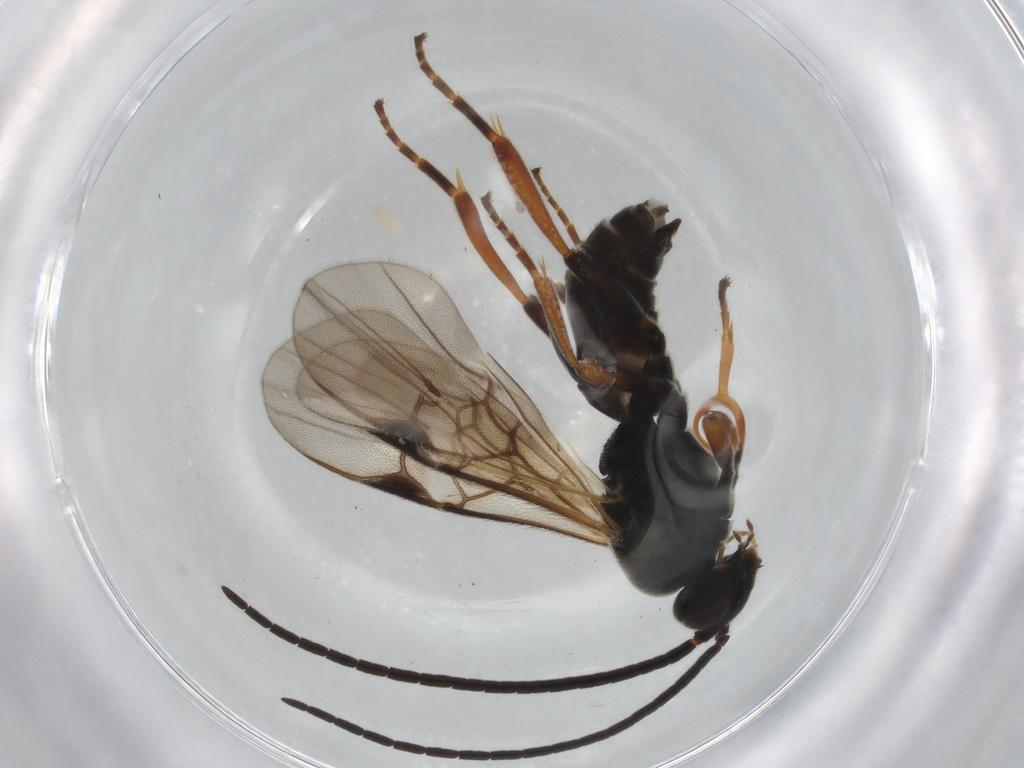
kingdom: Animalia
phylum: Arthropoda
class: Insecta
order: Hymenoptera
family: Braconidae
